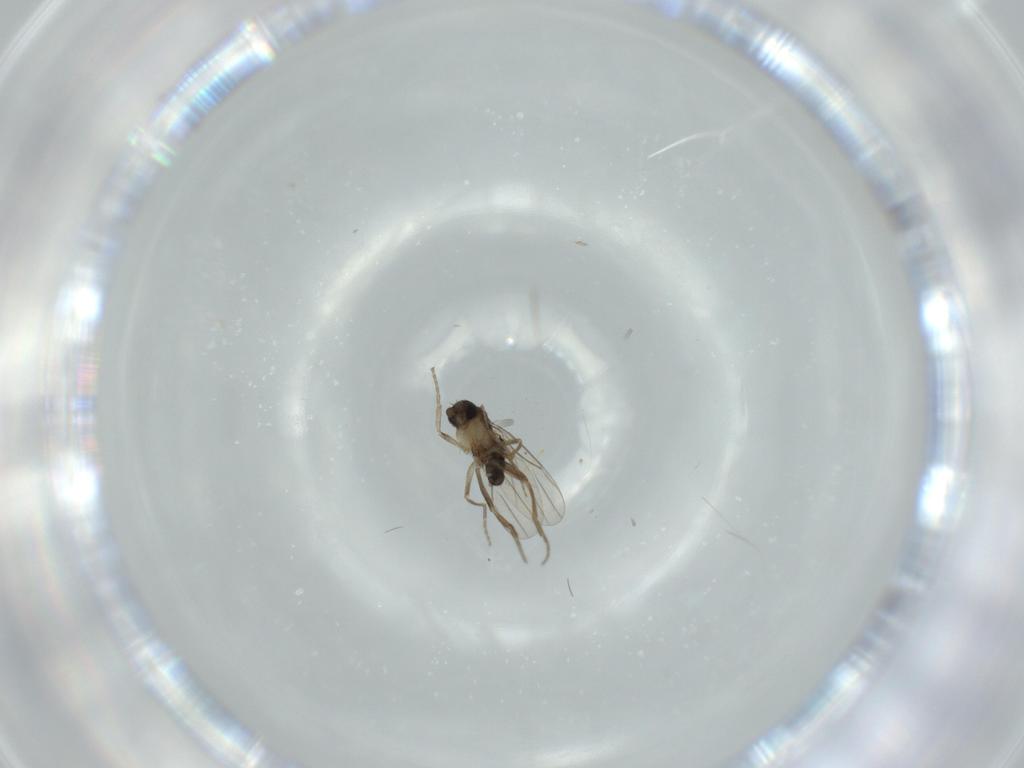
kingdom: Animalia
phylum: Arthropoda
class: Insecta
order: Diptera
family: Phoridae
